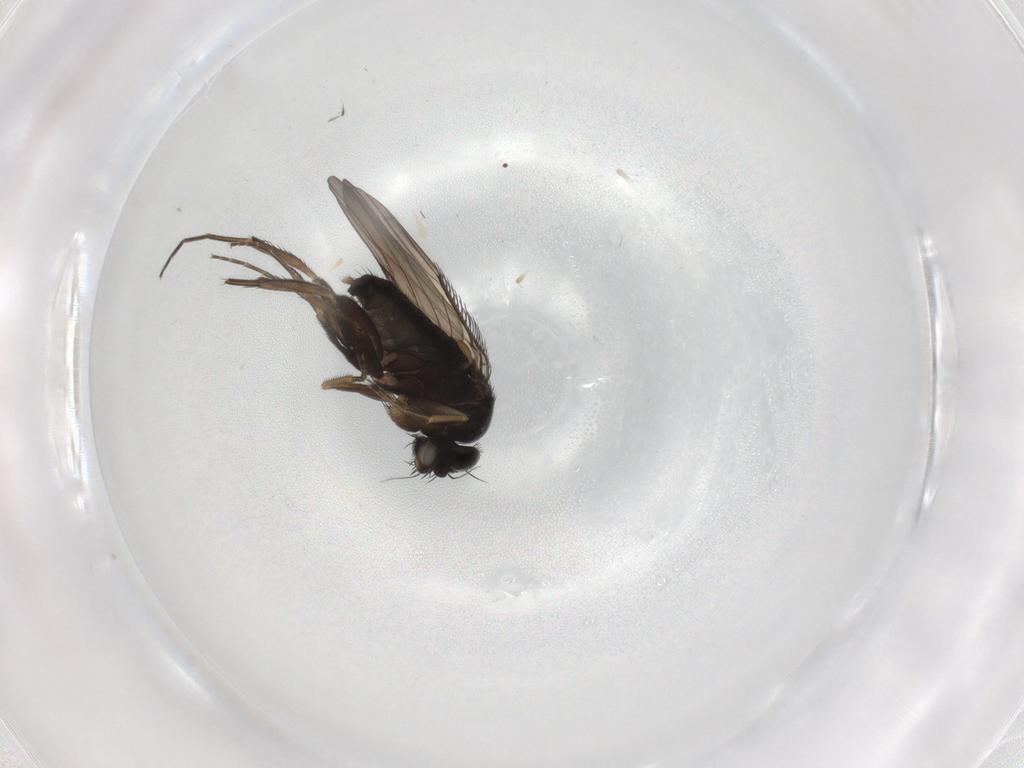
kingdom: Animalia
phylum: Arthropoda
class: Insecta
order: Diptera
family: Phoridae
